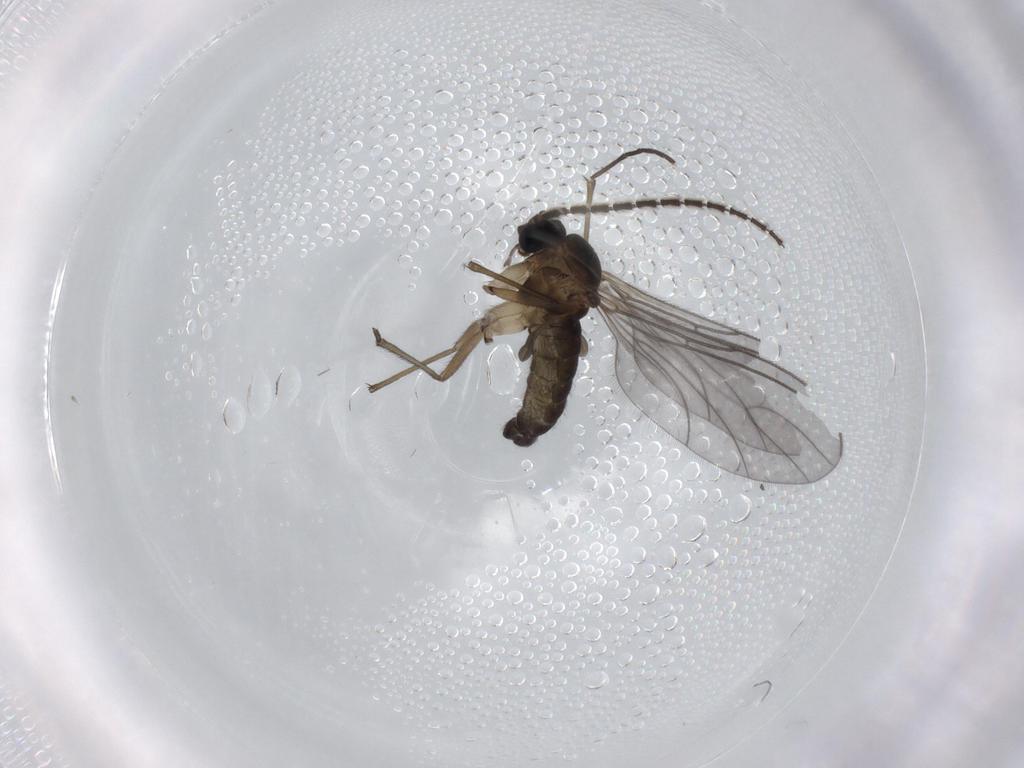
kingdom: Animalia
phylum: Arthropoda
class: Insecta
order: Diptera
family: Sciaridae
